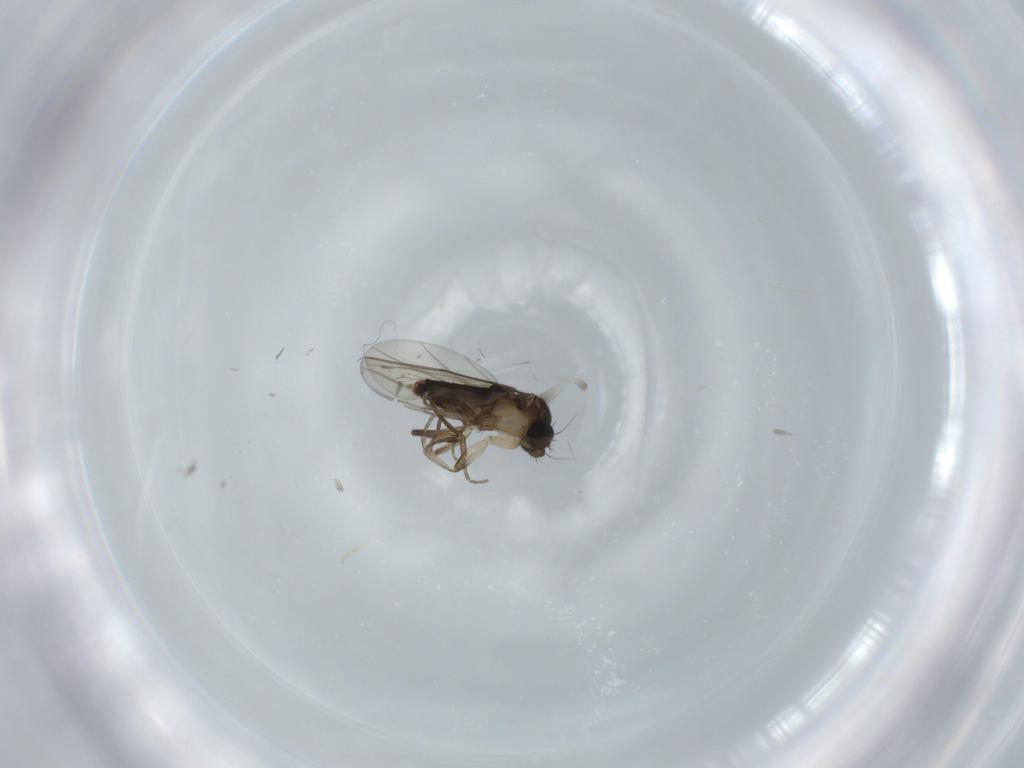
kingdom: Animalia
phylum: Arthropoda
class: Insecta
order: Diptera
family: Phoridae
